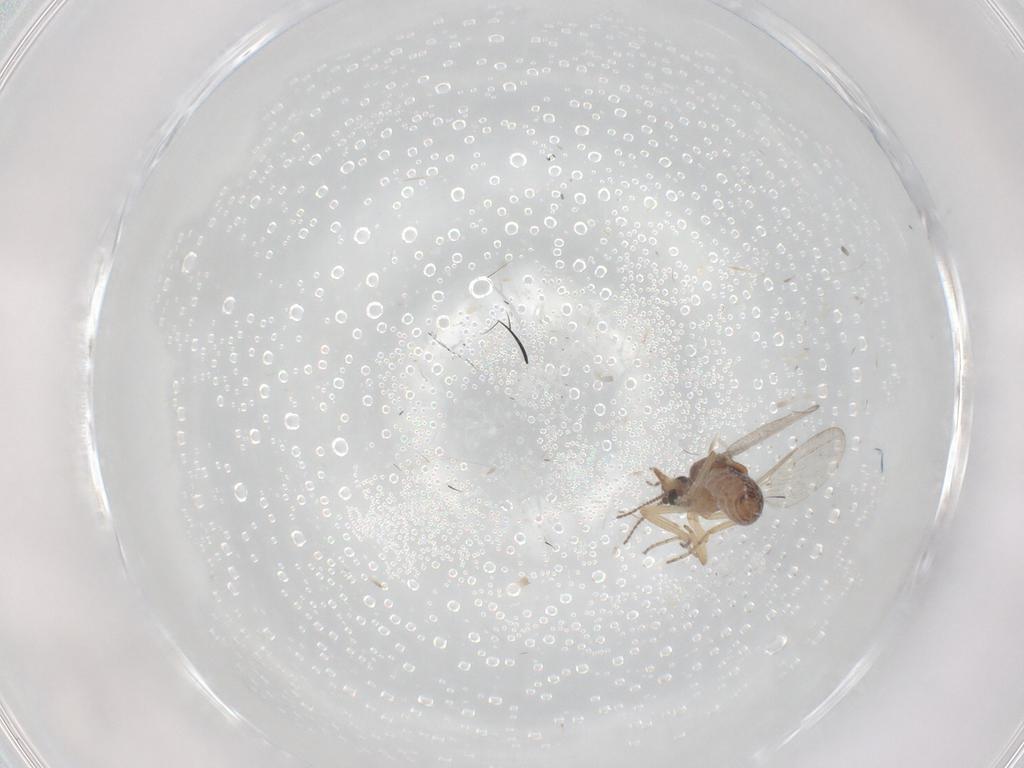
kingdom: Animalia
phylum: Arthropoda
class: Insecta
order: Diptera
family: Ceratopogonidae
